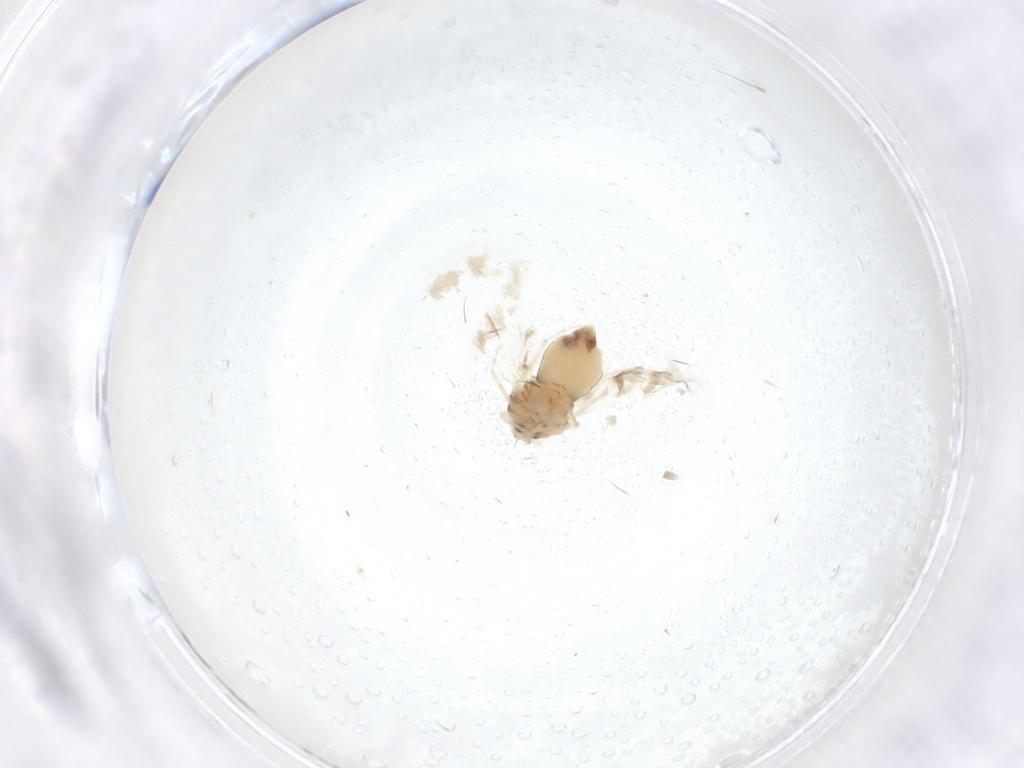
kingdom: Animalia
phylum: Arthropoda
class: Insecta
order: Hemiptera
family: Aleyrodidae
